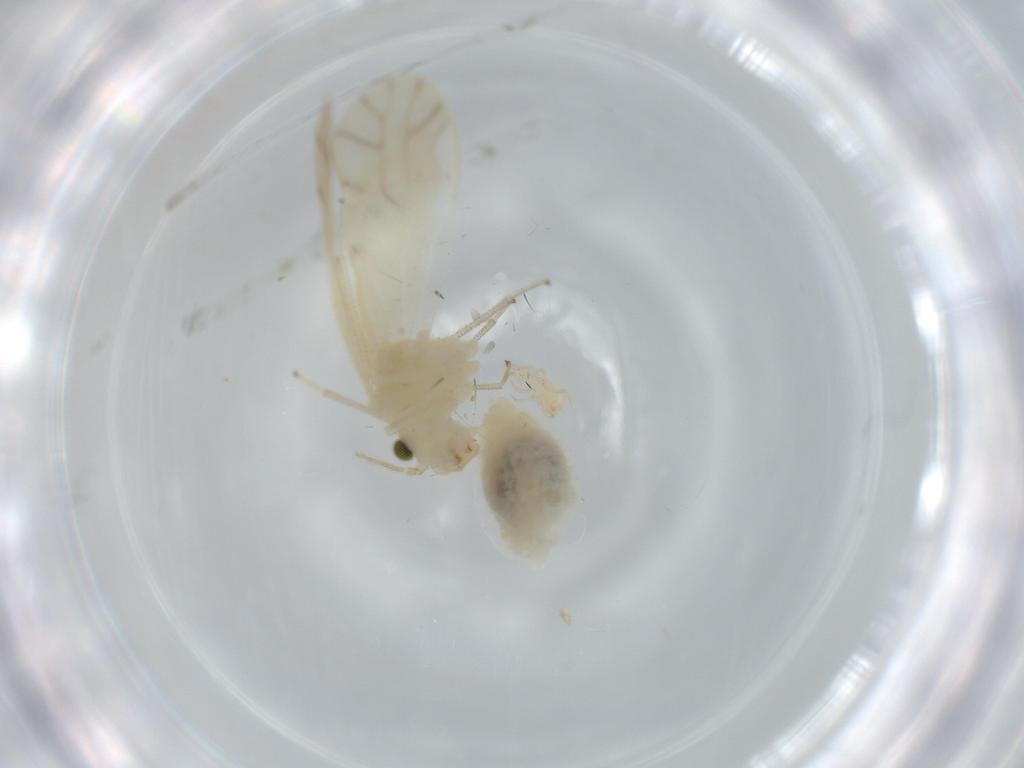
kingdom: Animalia
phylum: Arthropoda
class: Insecta
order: Psocodea
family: Caeciliusidae
